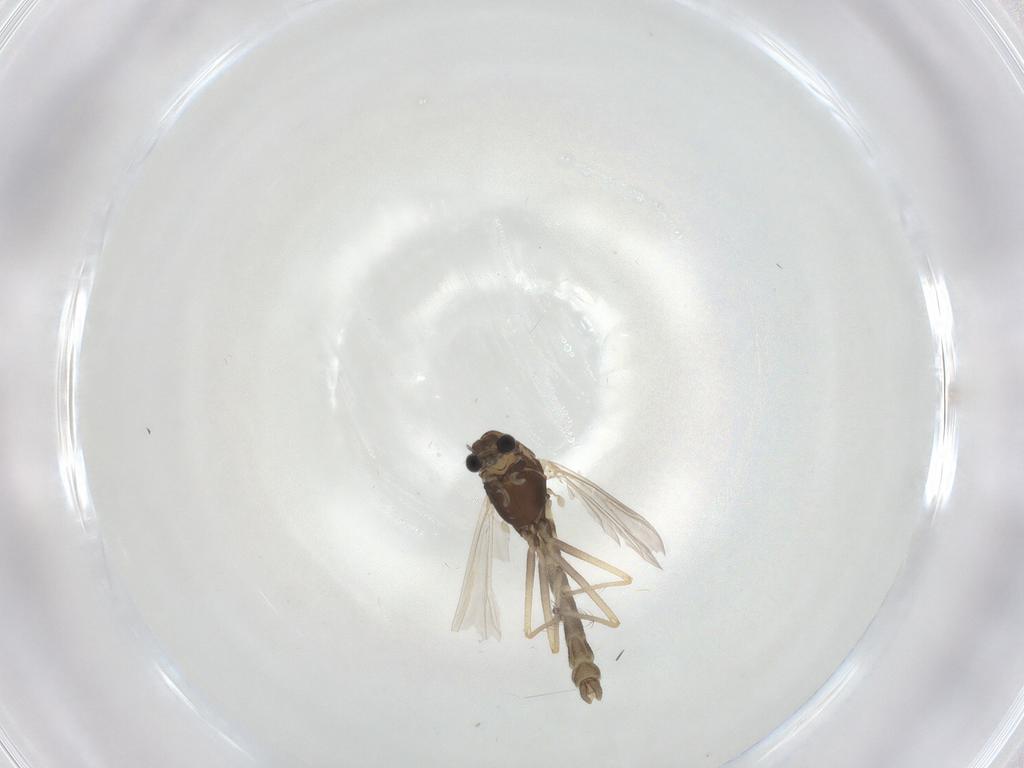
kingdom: Animalia
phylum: Arthropoda
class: Insecta
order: Diptera
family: Chironomidae
